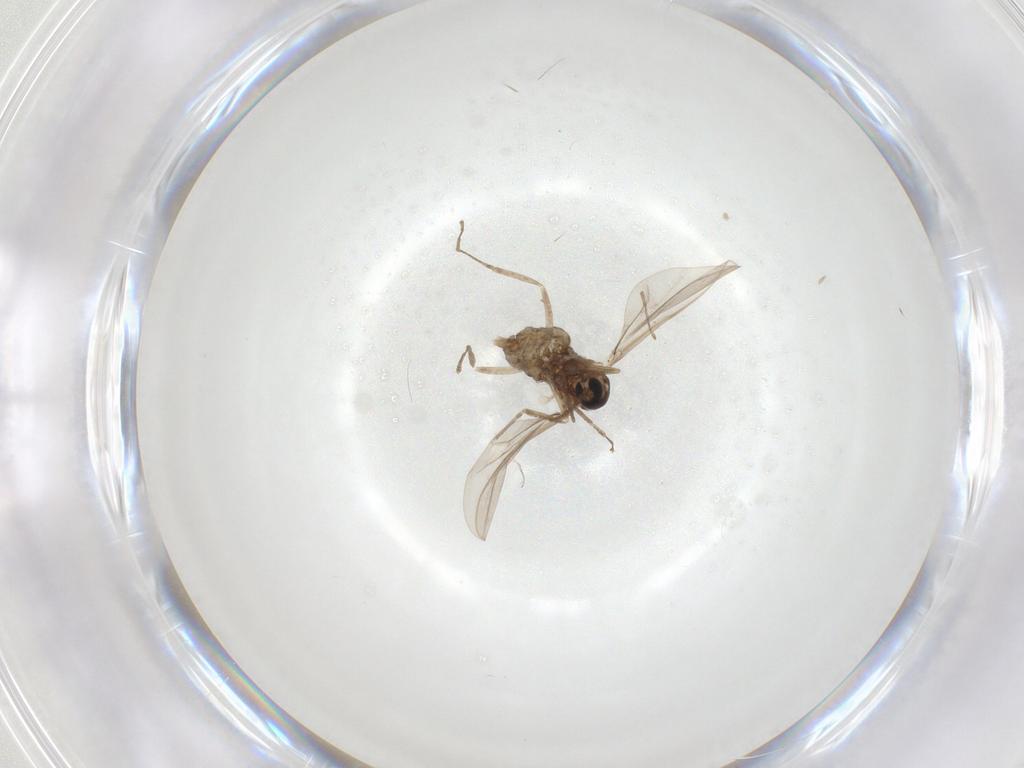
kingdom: Animalia
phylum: Arthropoda
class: Insecta
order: Diptera
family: Cecidomyiidae
